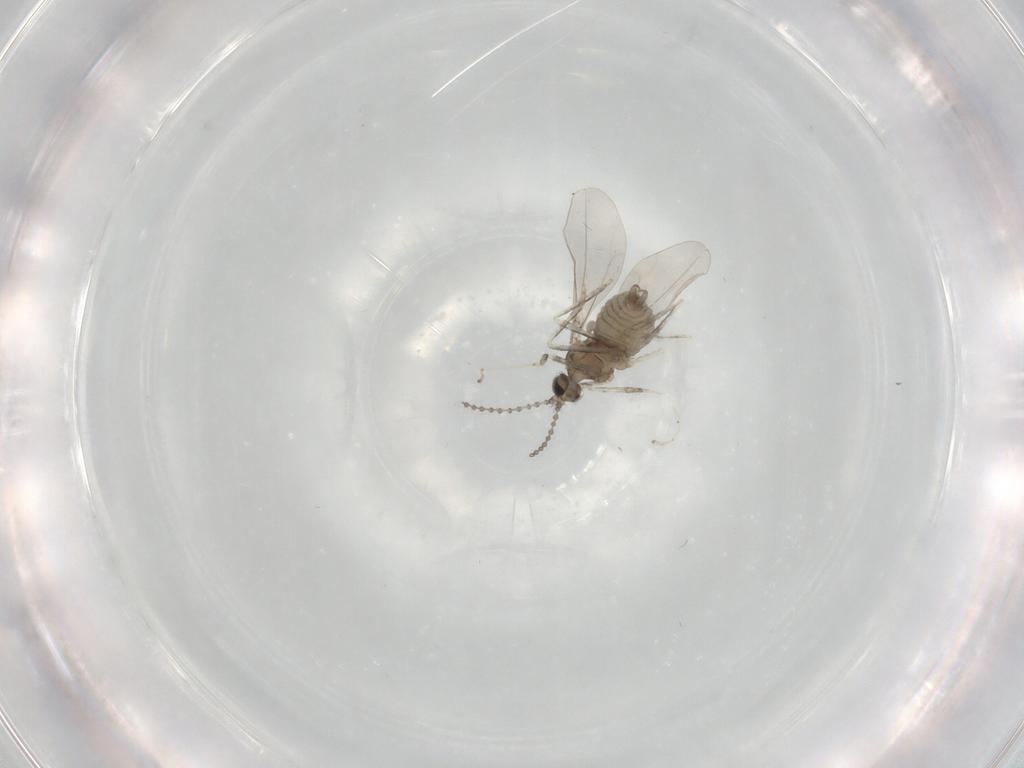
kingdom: Animalia
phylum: Arthropoda
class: Insecta
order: Diptera
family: Cecidomyiidae
